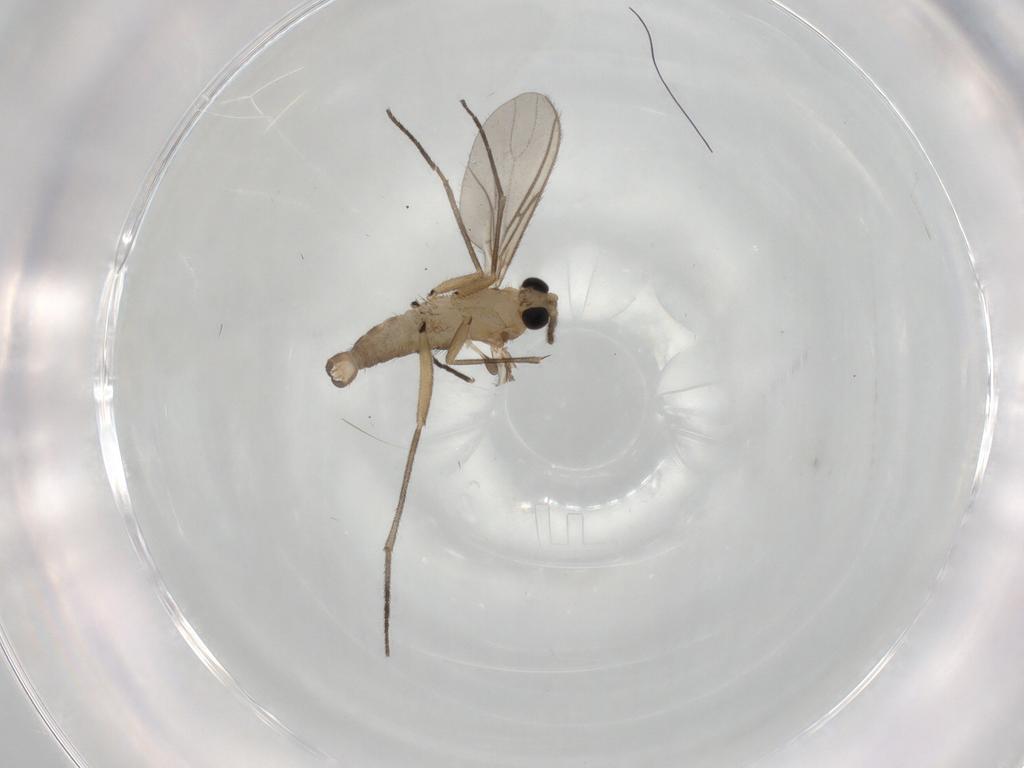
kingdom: Animalia
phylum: Arthropoda
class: Insecta
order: Diptera
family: Sciaridae
